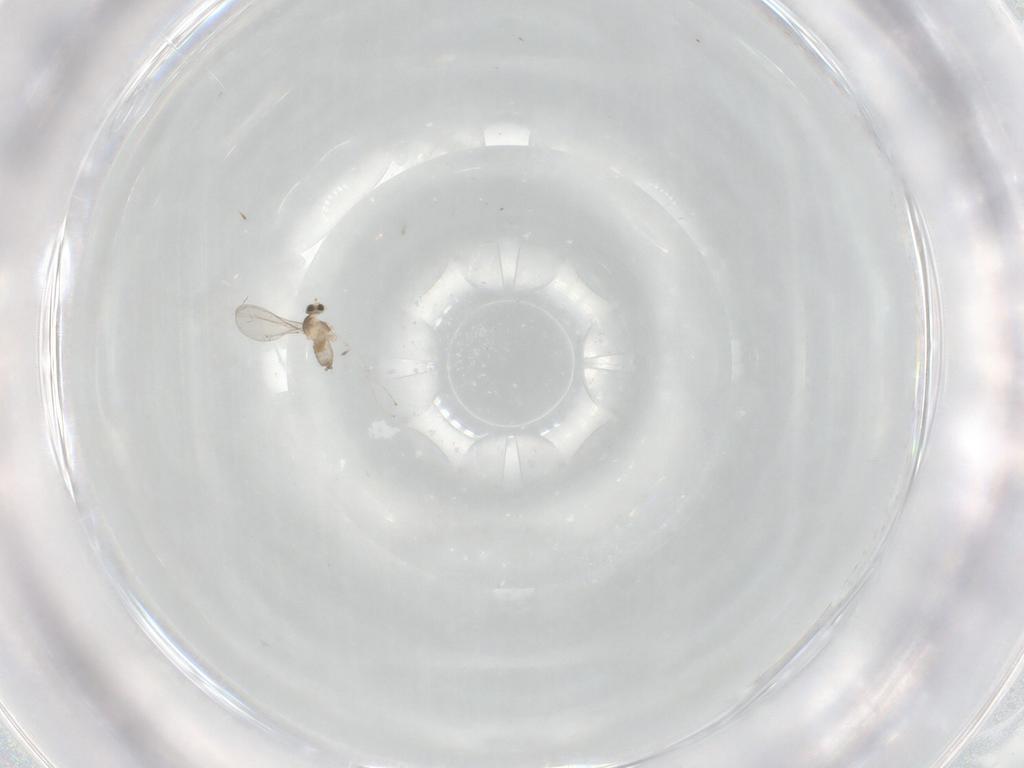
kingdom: Animalia
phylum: Arthropoda
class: Insecta
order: Diptera
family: Cecidomyiidae
